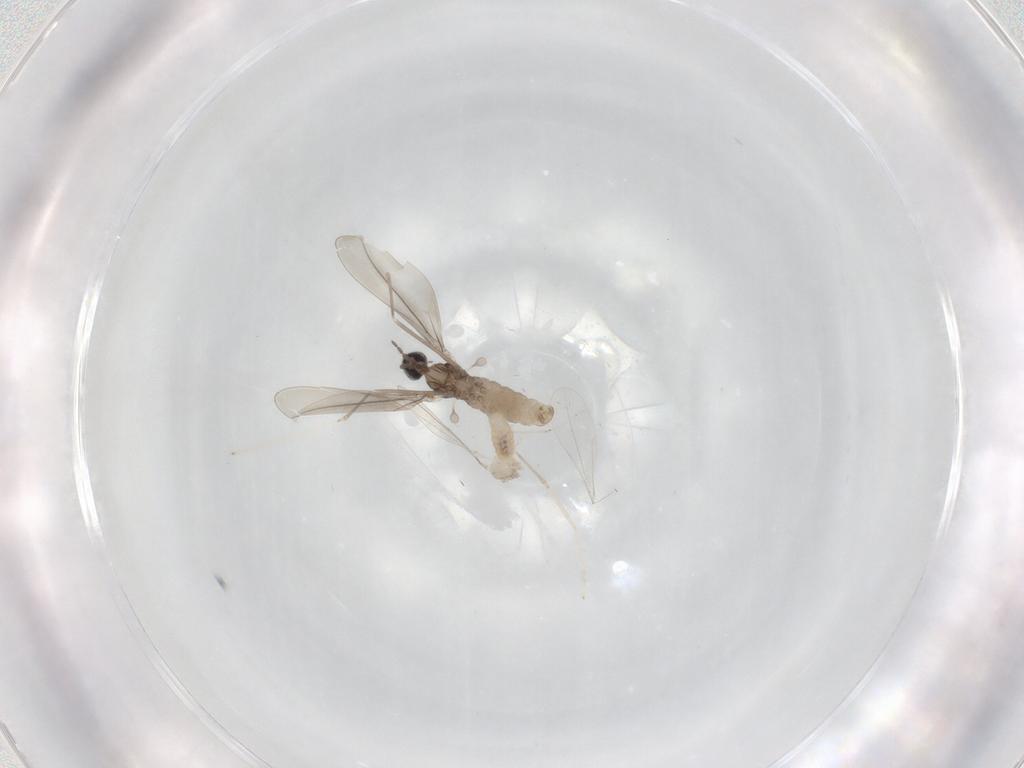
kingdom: Animalia
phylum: Arthropoda
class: Insecta
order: Diptera
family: Cecidomyiidae
